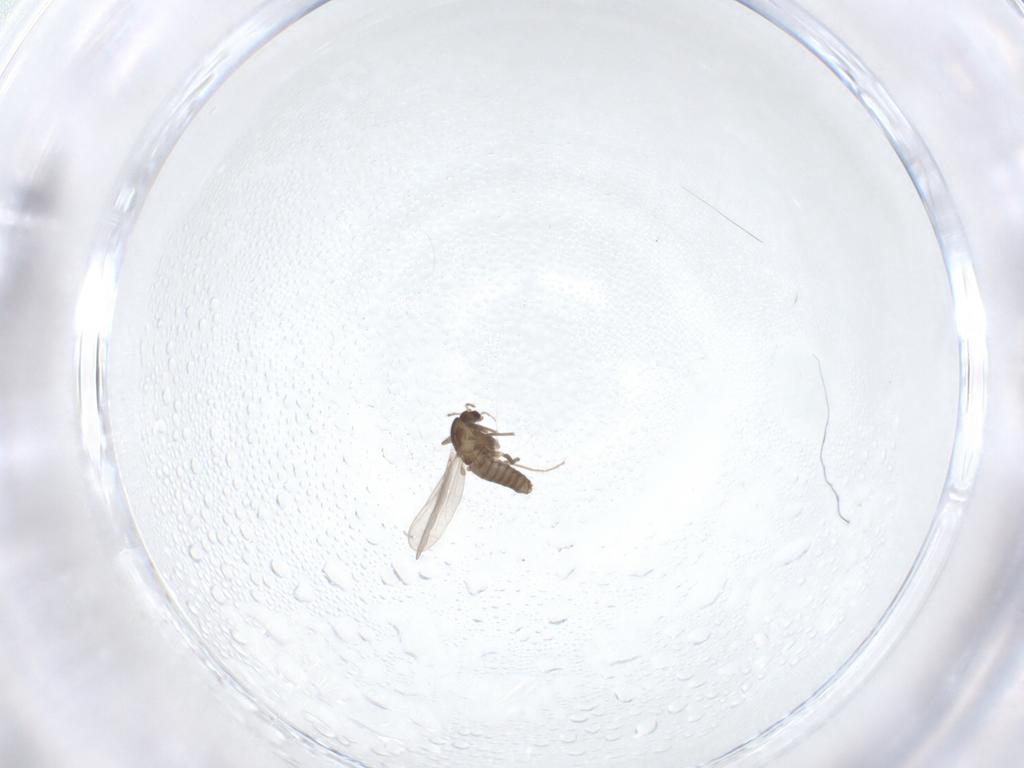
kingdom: Animalia
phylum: Arthropoda
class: Insecta
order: Diptera
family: Chironomidae
